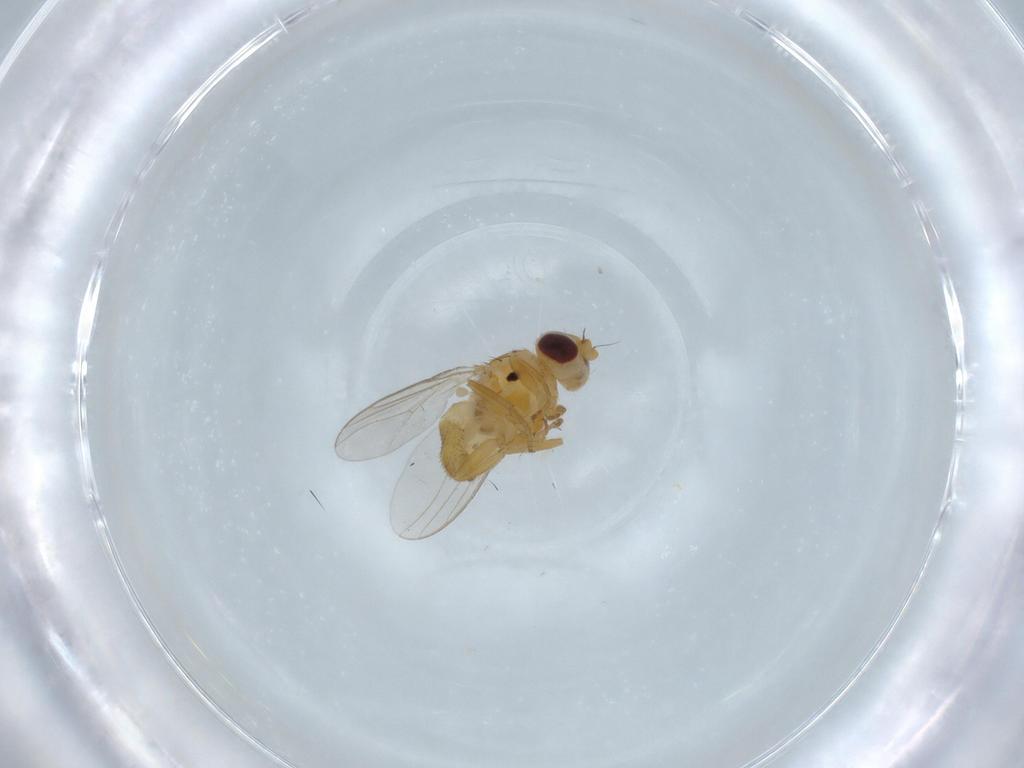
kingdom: Animalia
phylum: Arthropoda
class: Insecta
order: Diptera
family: Chloropidae
